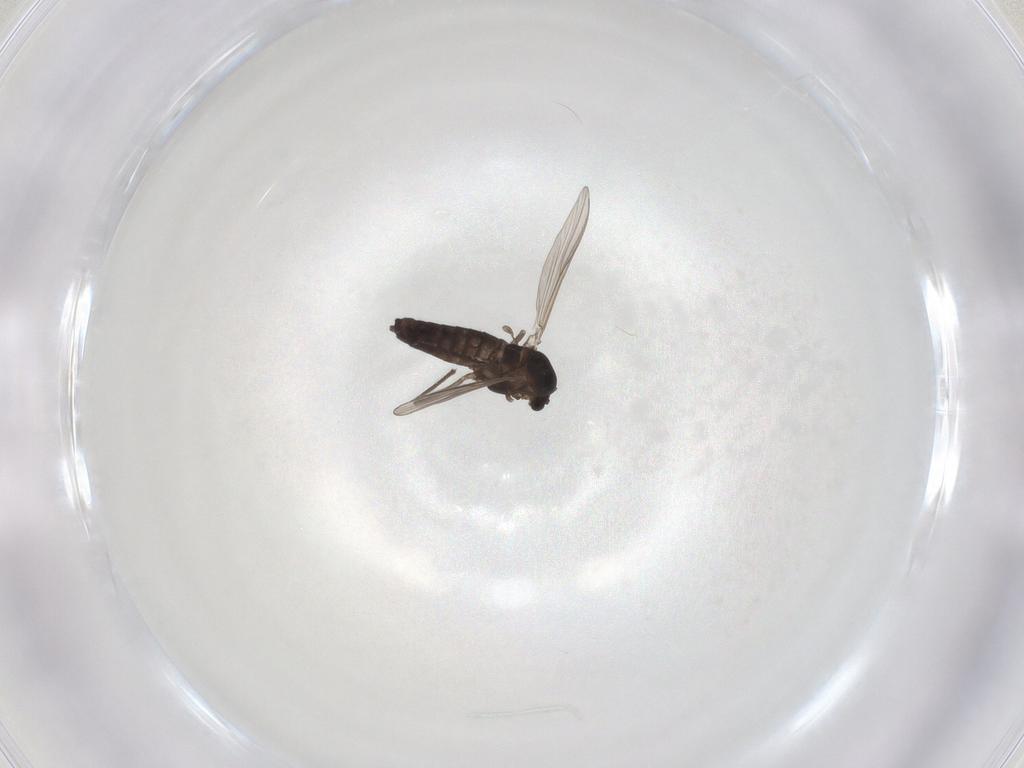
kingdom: Animalia
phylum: Arthropoda
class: Insecta
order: Diptera
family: Chironomidae
